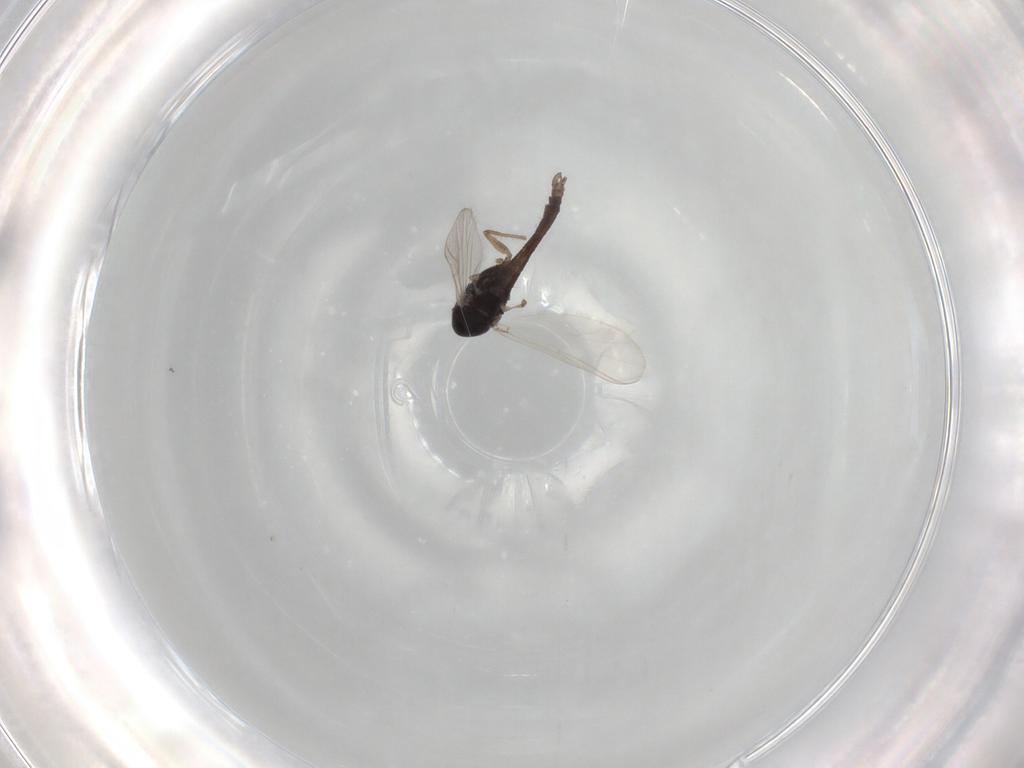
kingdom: Animalia
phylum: Arthropoda
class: Insecta
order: Diptera
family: Chironomidae
